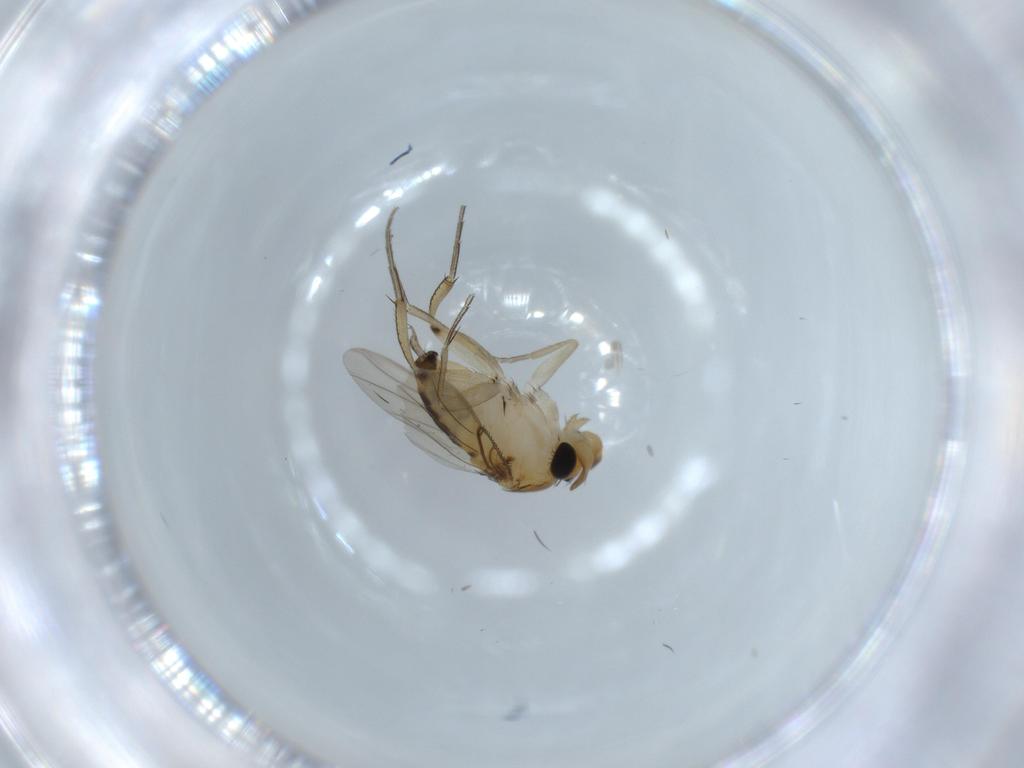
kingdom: Animalia
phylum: Arthropoda
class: Insecta
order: Diptera
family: Phoridae
